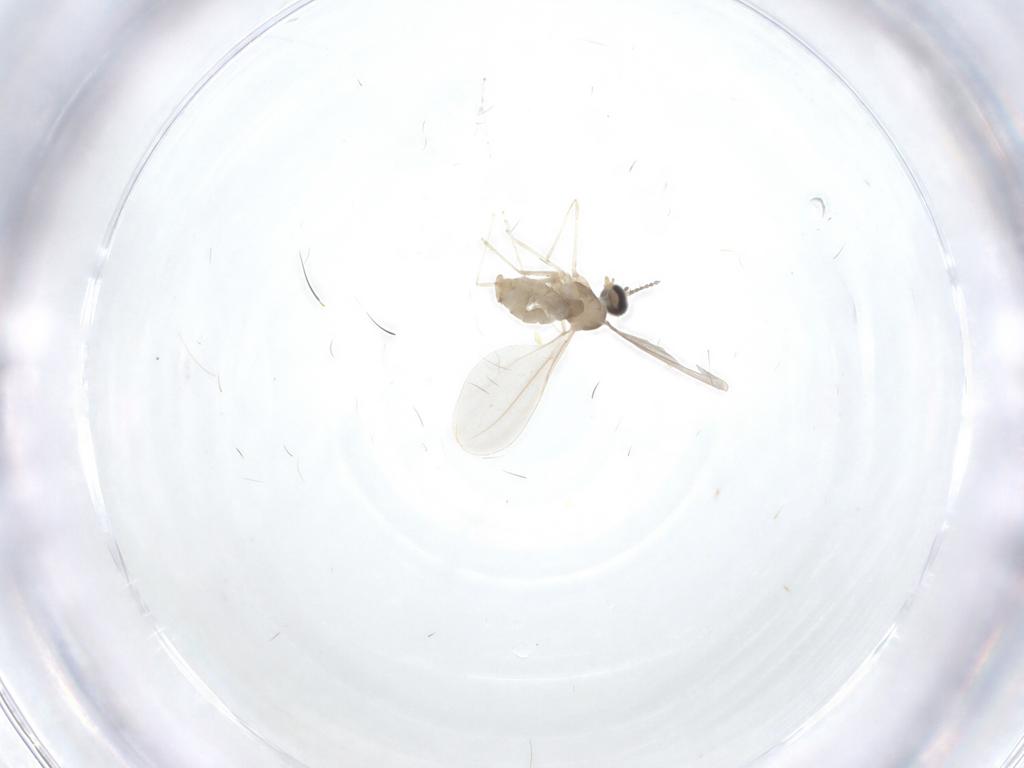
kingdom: Animalia
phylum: Arthropoda
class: Insecta
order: Diptera
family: Cecidomyiidae
